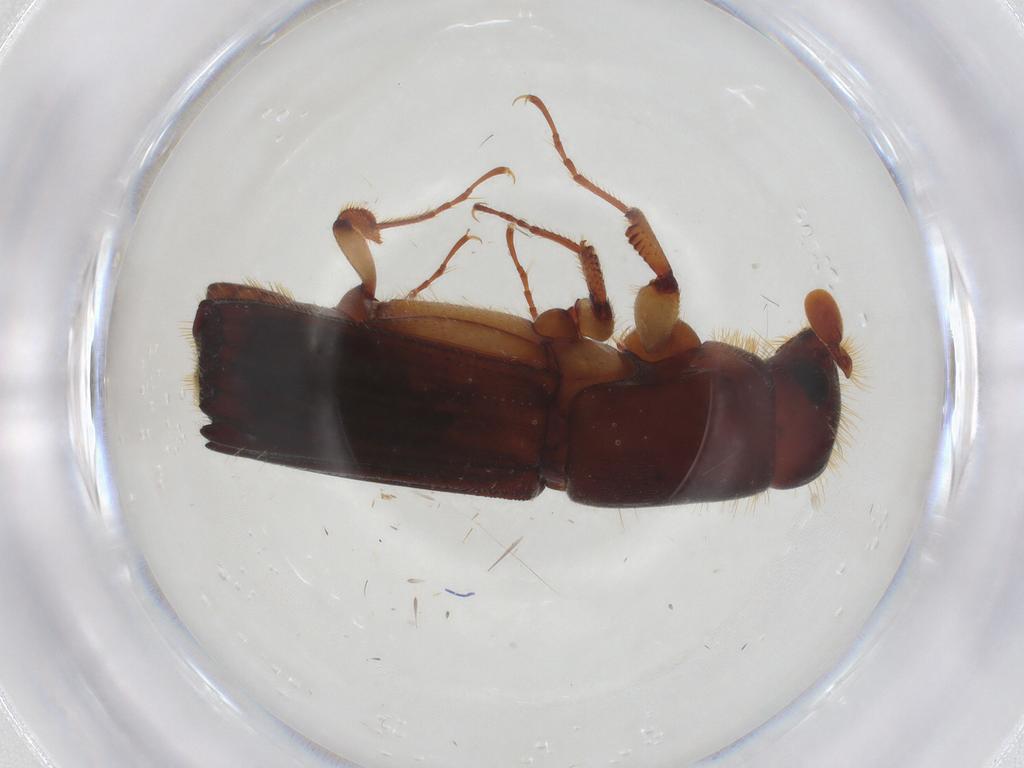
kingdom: Animalia
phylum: Arthropoda
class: Insecta
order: Coleoptera
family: Curculionidae
